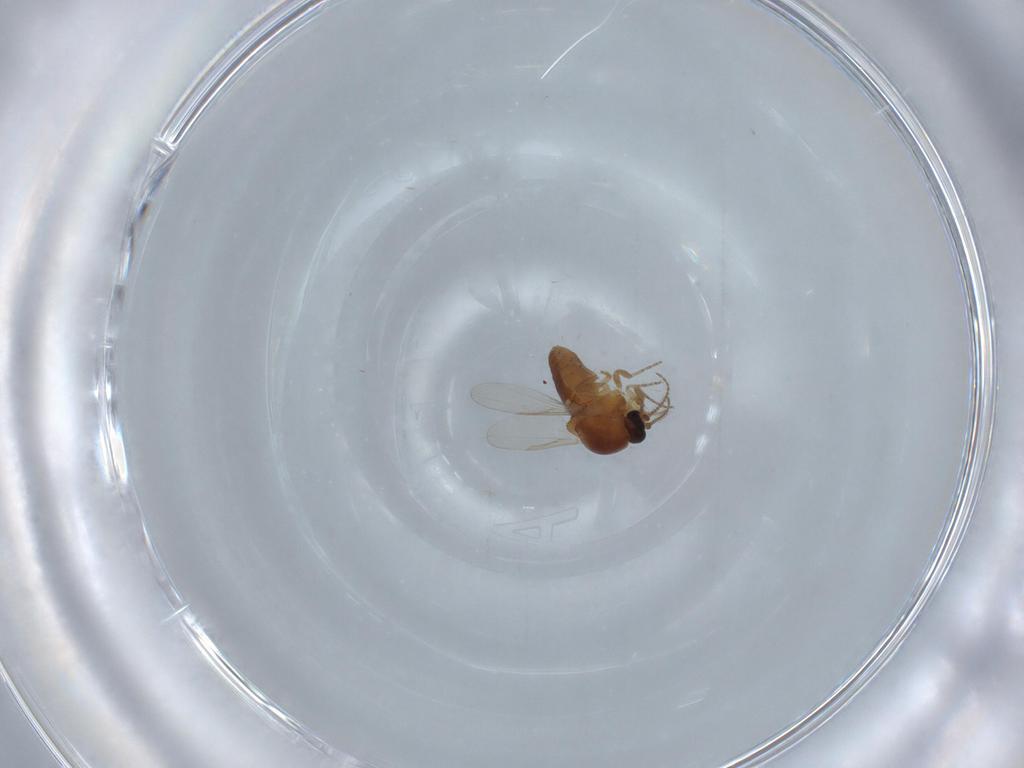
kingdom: Animalia
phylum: Arthropoda
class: Insecta
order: Diptera
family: Ceratopogonidae
